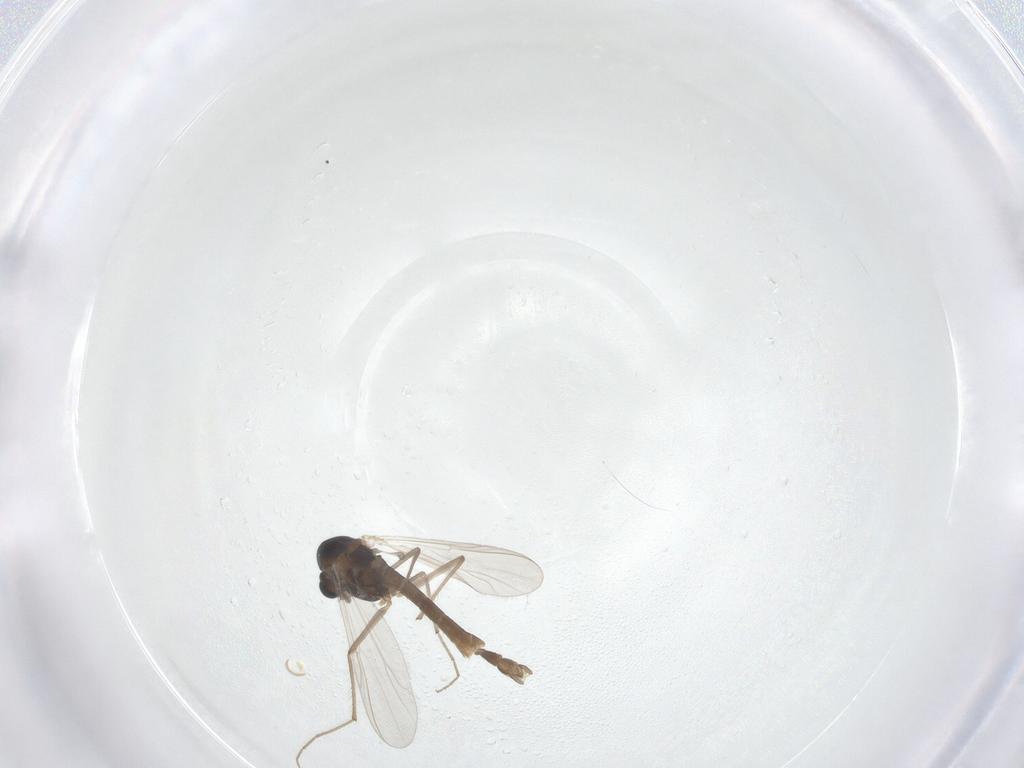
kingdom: Animalia
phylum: Arthropoda
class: Insecta
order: Diptera
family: Chironomidae
